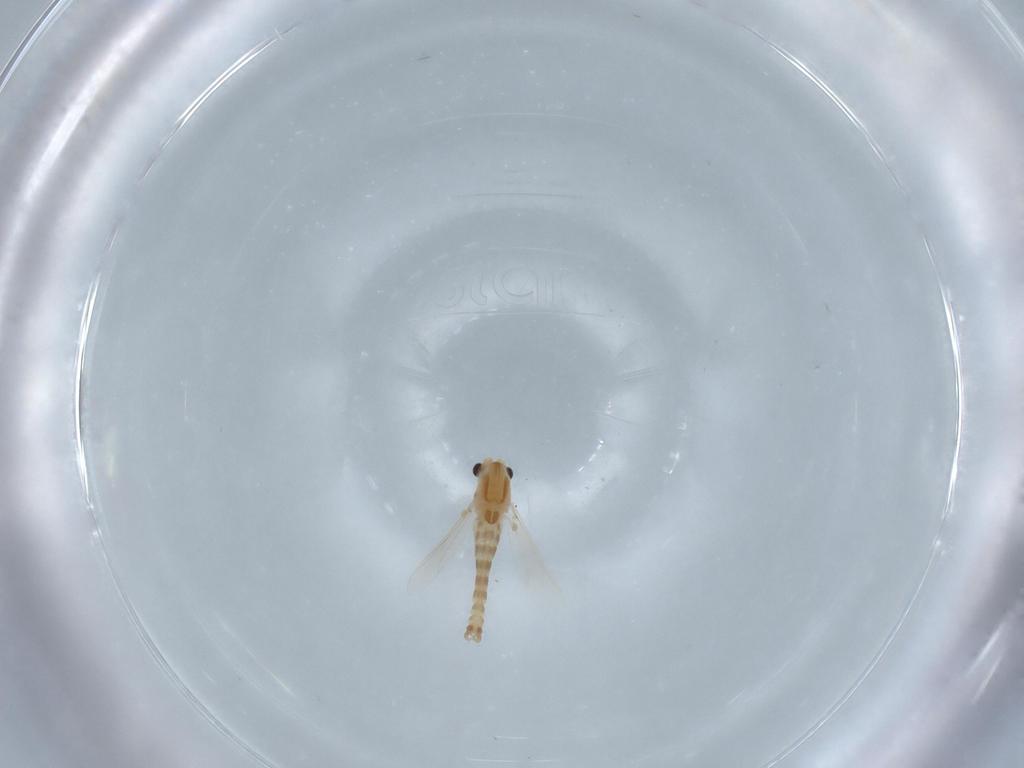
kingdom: Animalia
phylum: Arthropoda
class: Insecta
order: Diptera
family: Chironomidae
